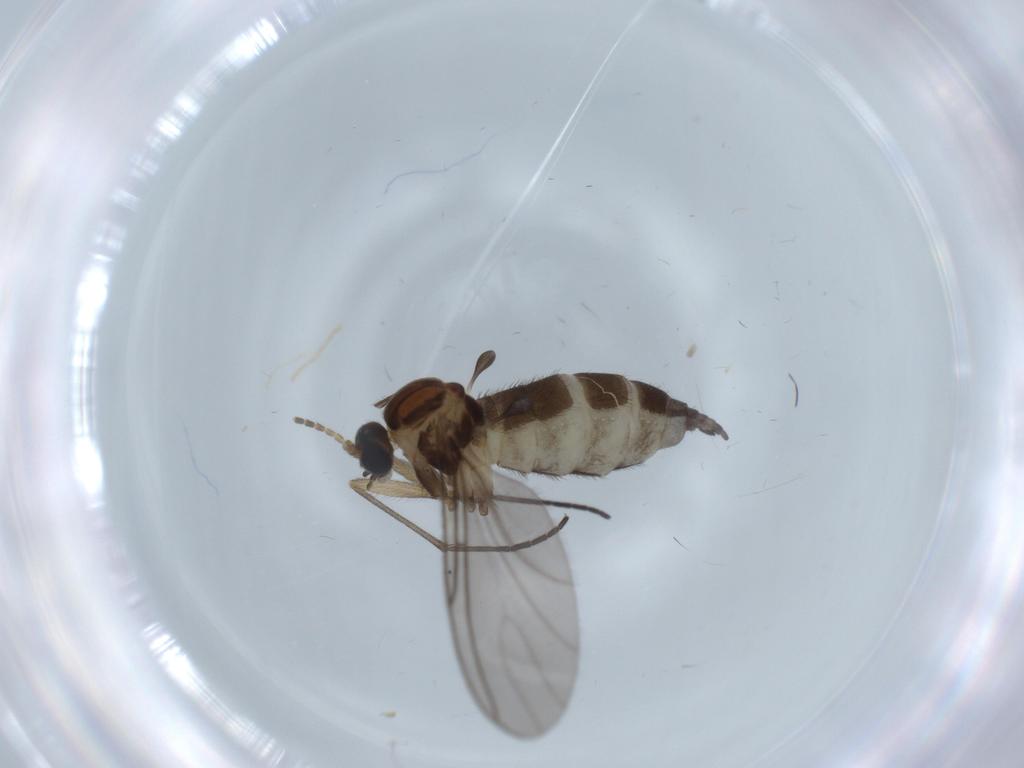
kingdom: Animalia
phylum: Arthropoda
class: Insecta
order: Diptera
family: Sciaridae
